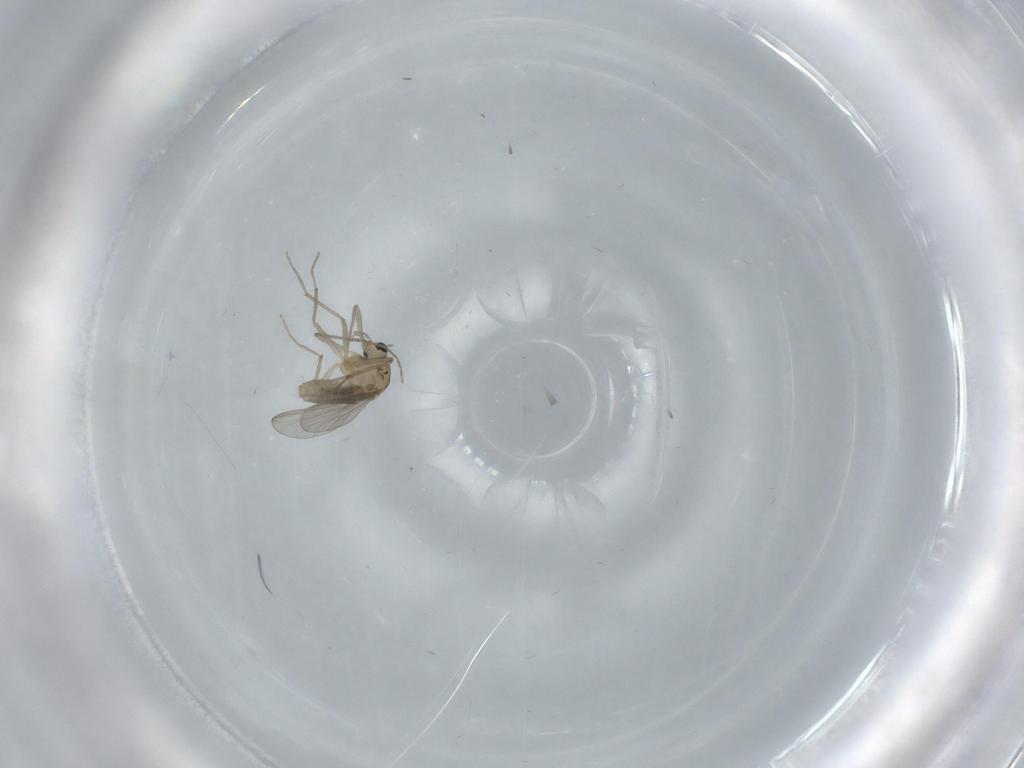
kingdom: Animalia
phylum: Arthropoda
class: Insecta
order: Diptera
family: Chironomidae
